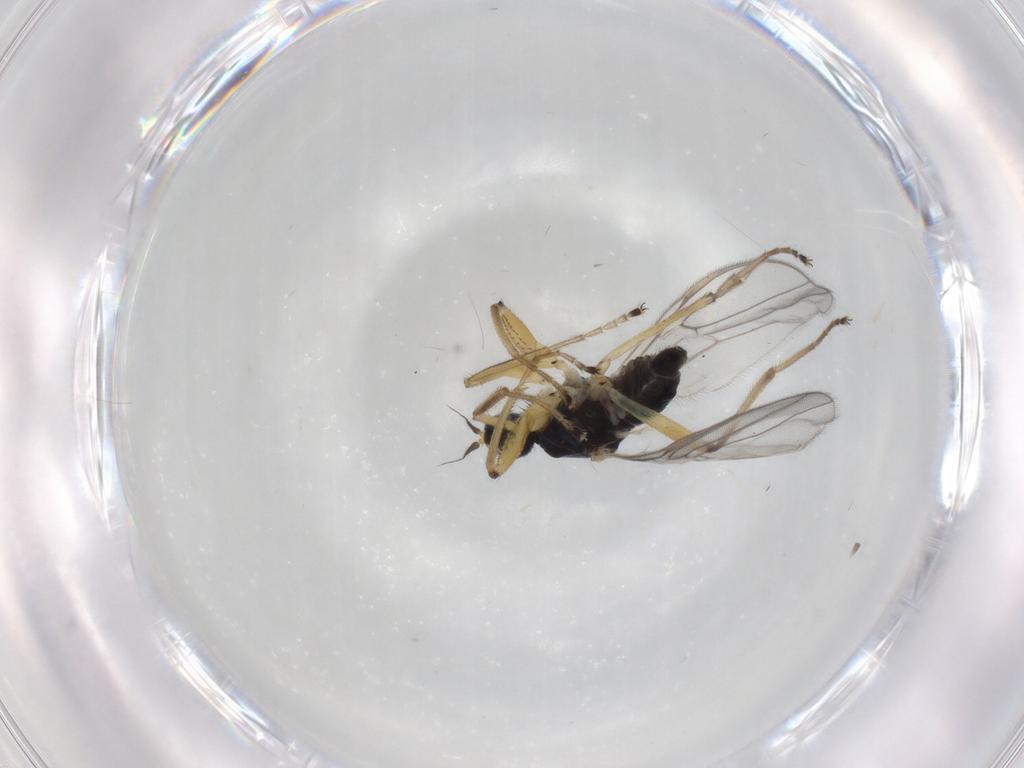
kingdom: Animalia
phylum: Arthropoda
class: Insecta
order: Diptera
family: Hybotidae
